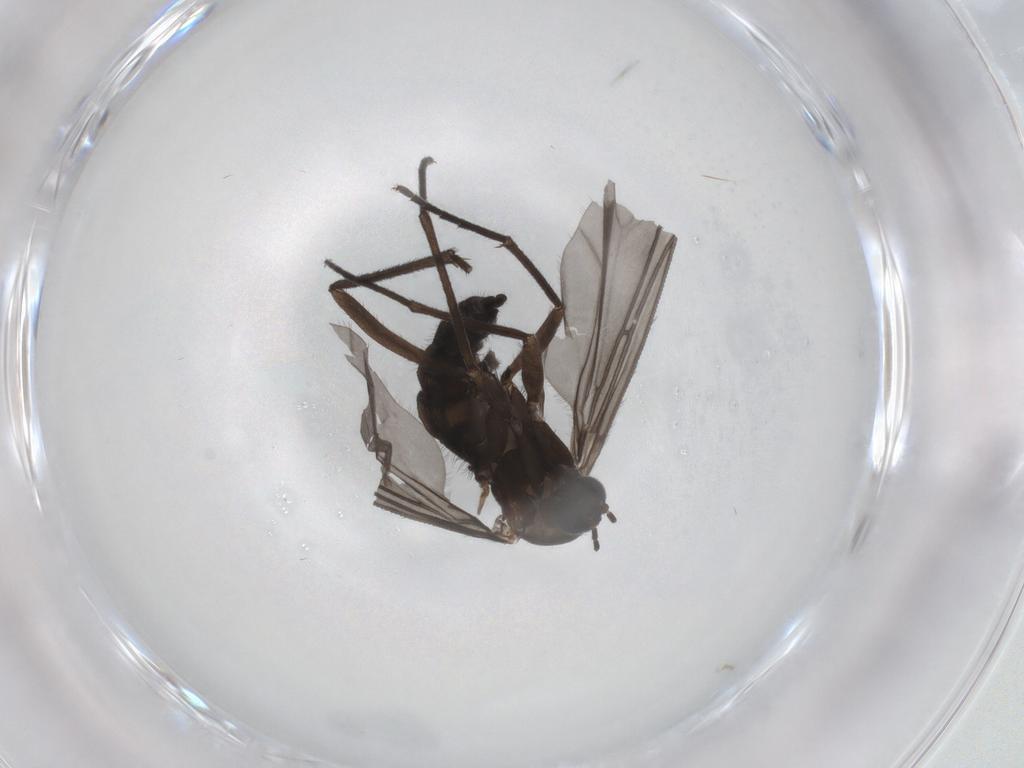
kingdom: Animalia
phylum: Arthropoda
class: Insecta
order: Diptera
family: Sciaridae
